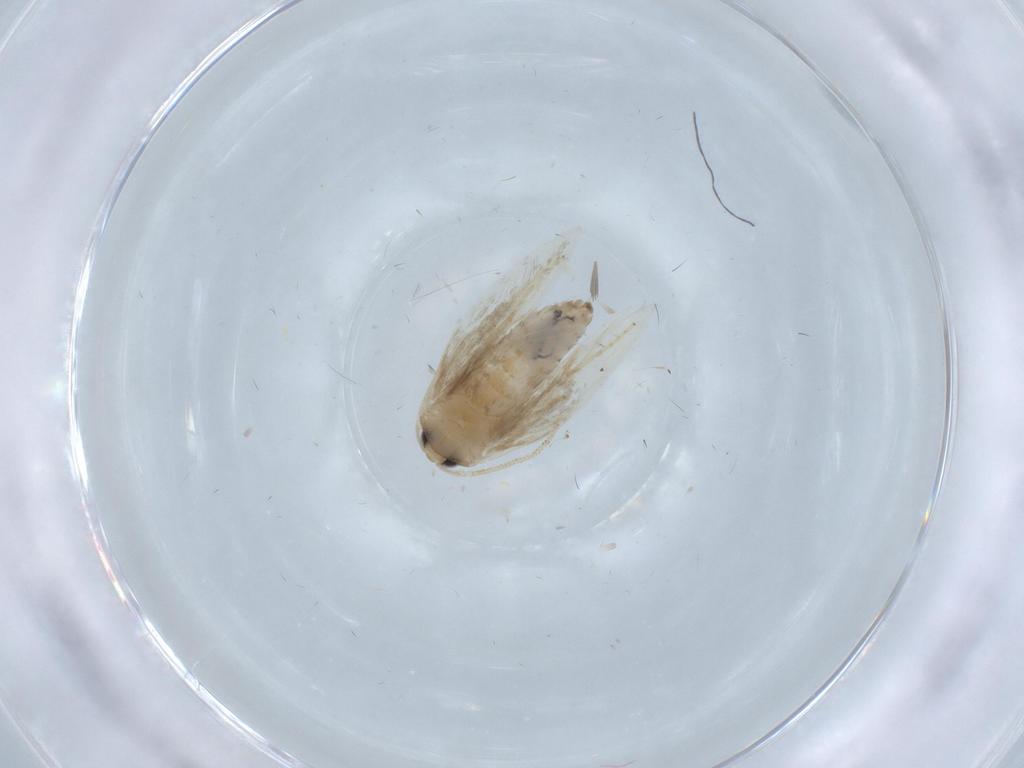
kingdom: Animalia
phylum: Arthropoda
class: Insecta
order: Lepidoptera
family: Nepticulidae
